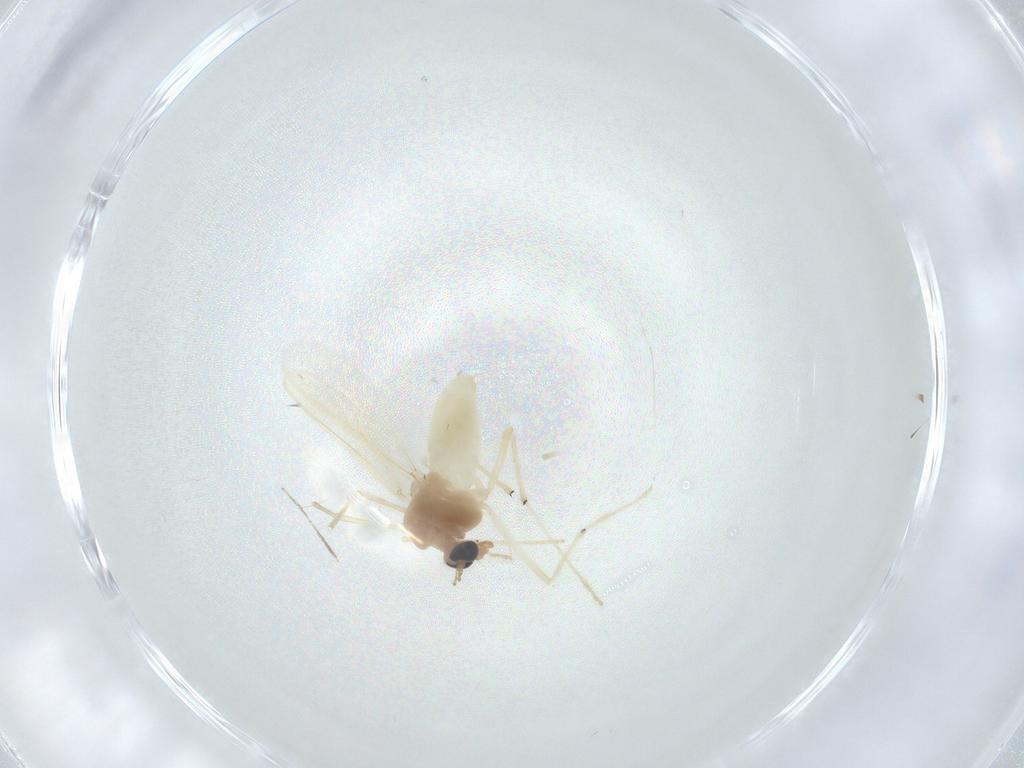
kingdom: Animalia
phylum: Arthropoda
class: Insecta
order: Diptera
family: Chironomidae
